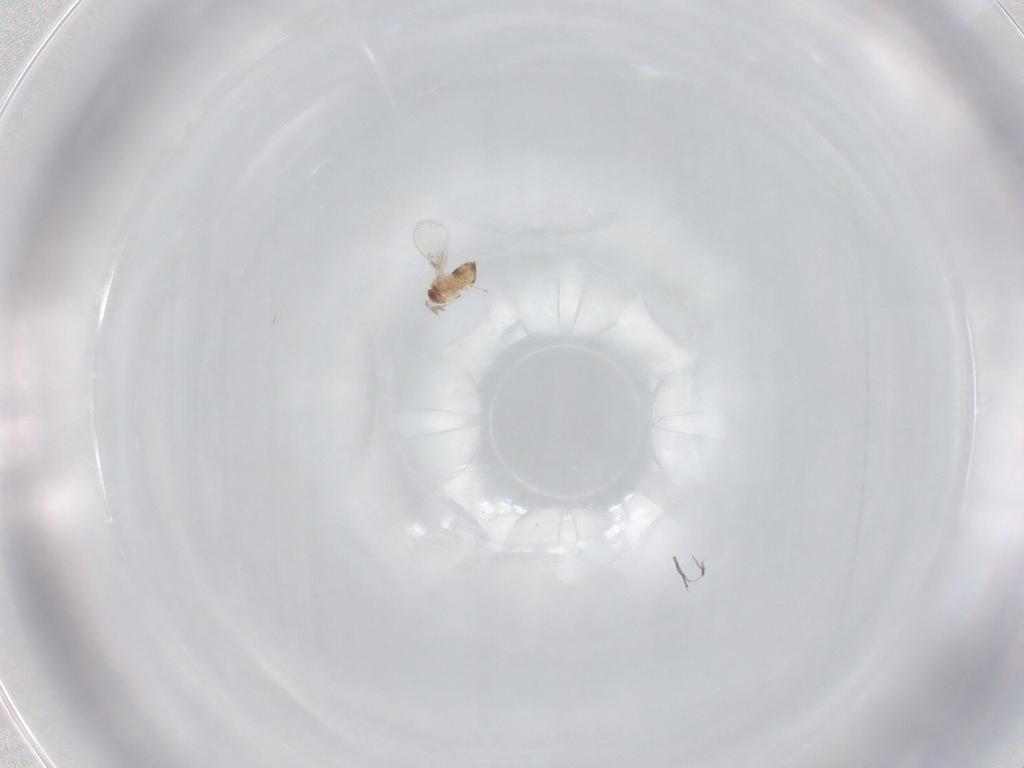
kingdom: Animalia
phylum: Arthropoda
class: Insecta
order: Hymenoptera
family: Trichogrammatidae
